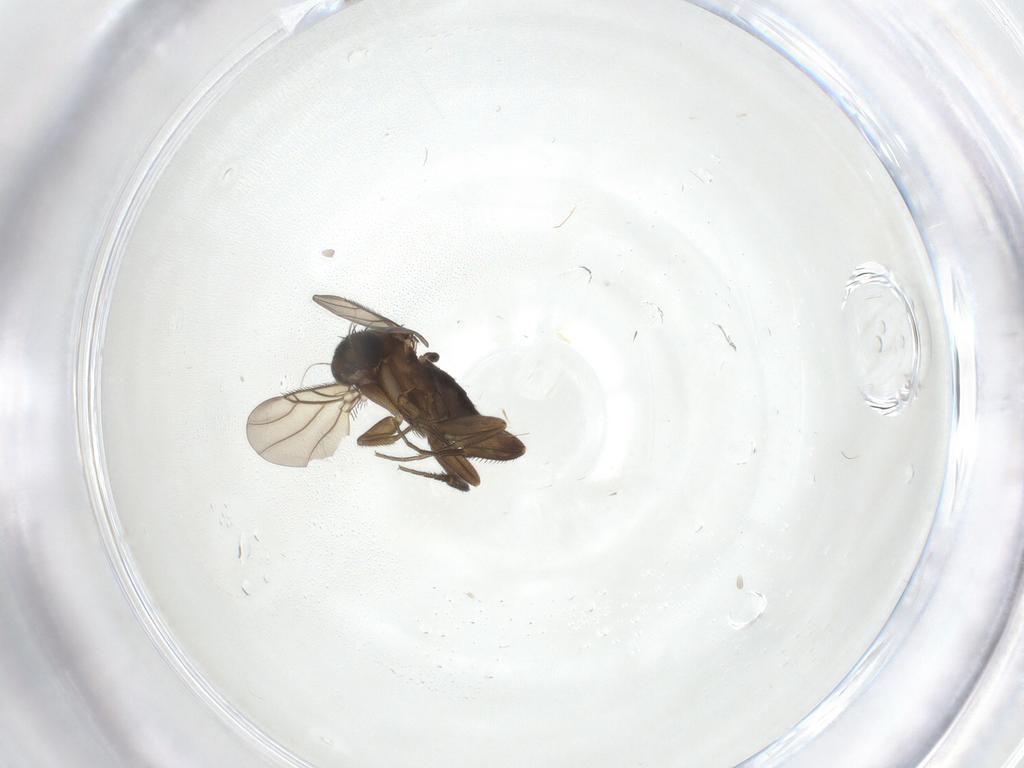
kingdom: Animalia
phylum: Arthropoda
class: Insecta
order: Diptera
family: Phoridae
